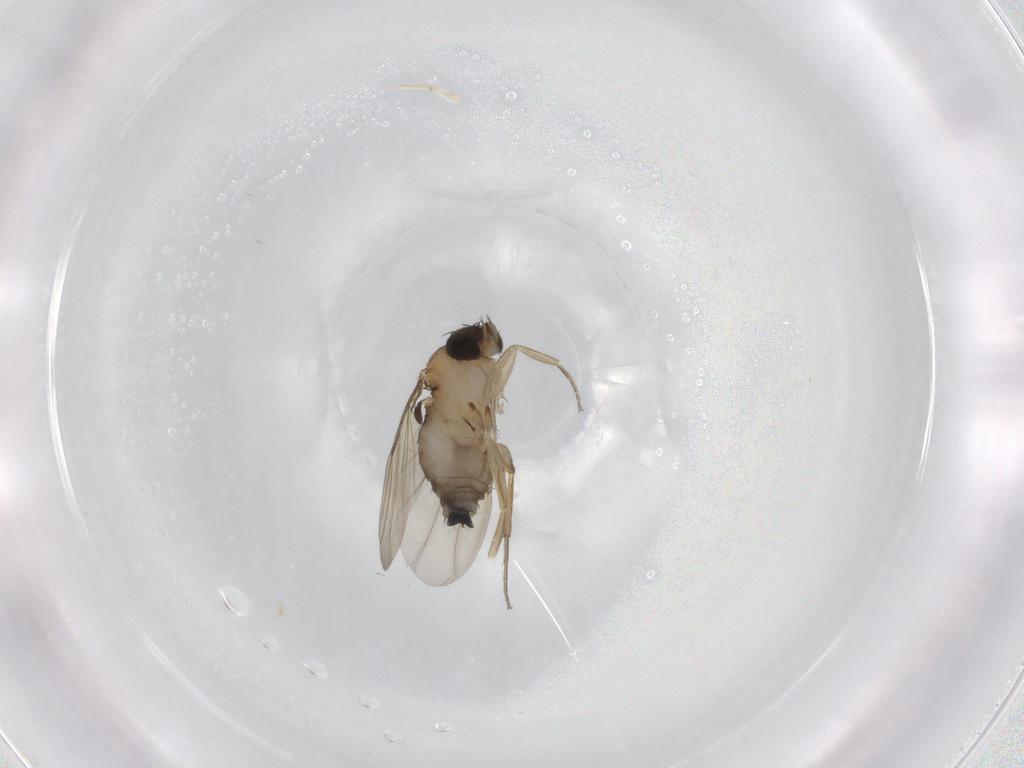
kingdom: Animalia
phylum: Arthropoda
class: Insecta
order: Diptera
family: Phoridae
